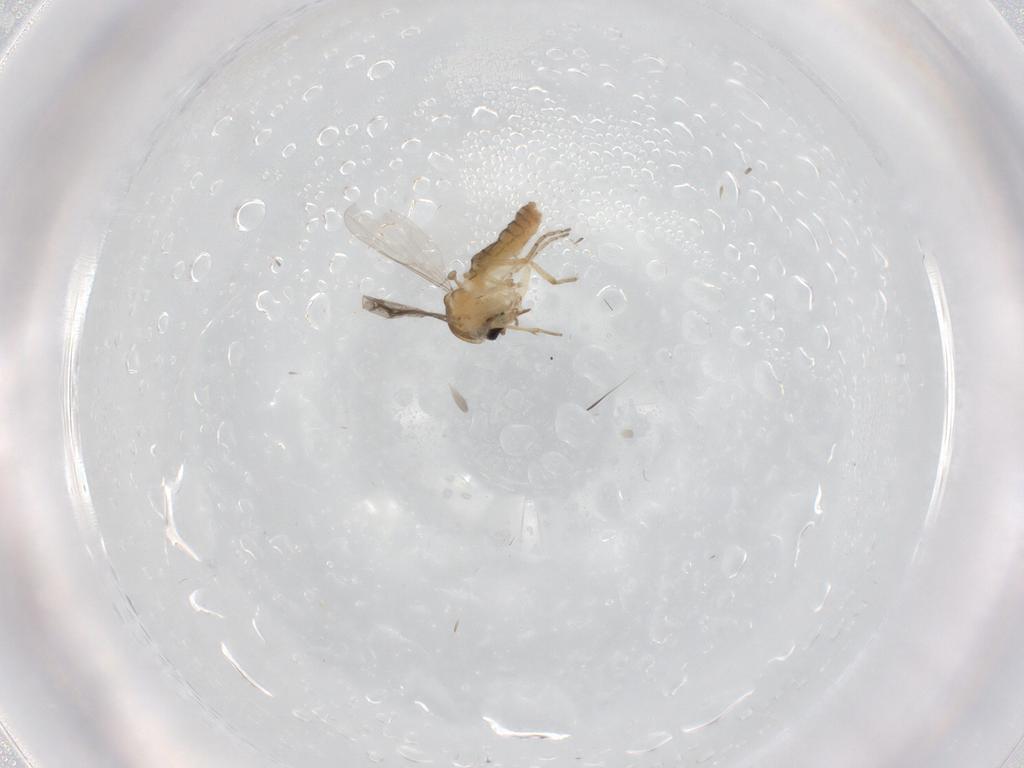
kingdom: Animalia
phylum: Arthropoda
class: Insecta
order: Diptera
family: Ceratopogonidae
